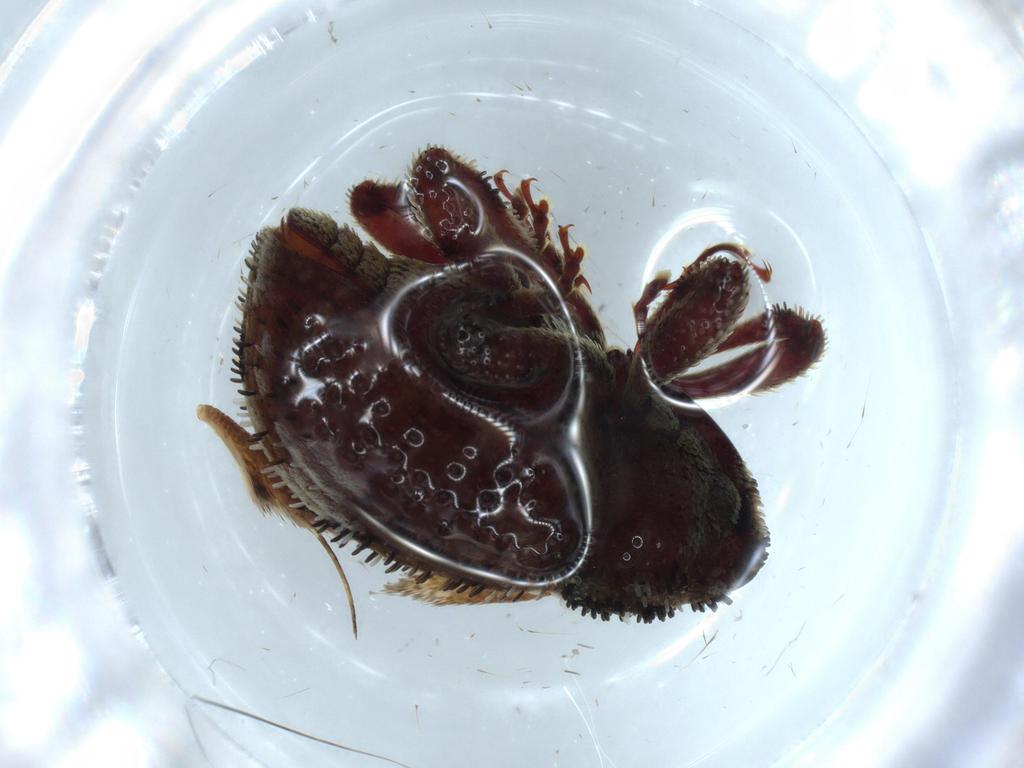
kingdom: Animalia
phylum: Arthropoda
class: Insecta
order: Coleoptera
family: Curculionidae
